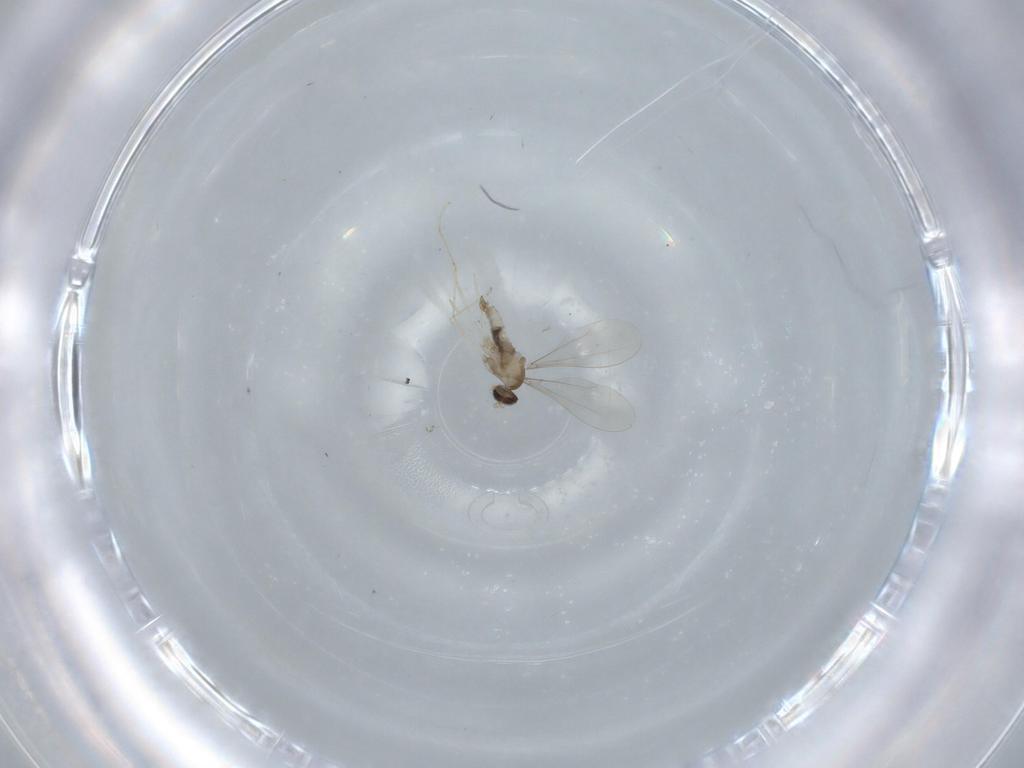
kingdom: Animalia
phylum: Arthropoda
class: Insecta
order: Diptera
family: Cecidomyiidae
